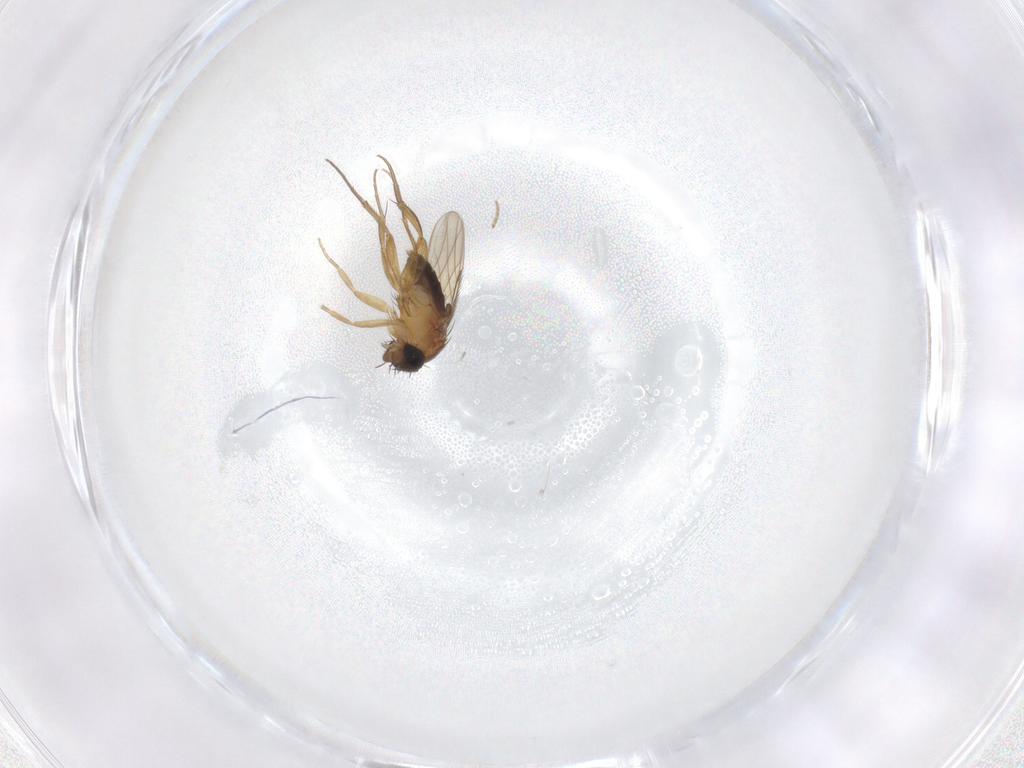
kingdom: Animalia
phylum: Arthropoda
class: Insecta
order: Diptera
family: Phoridae
